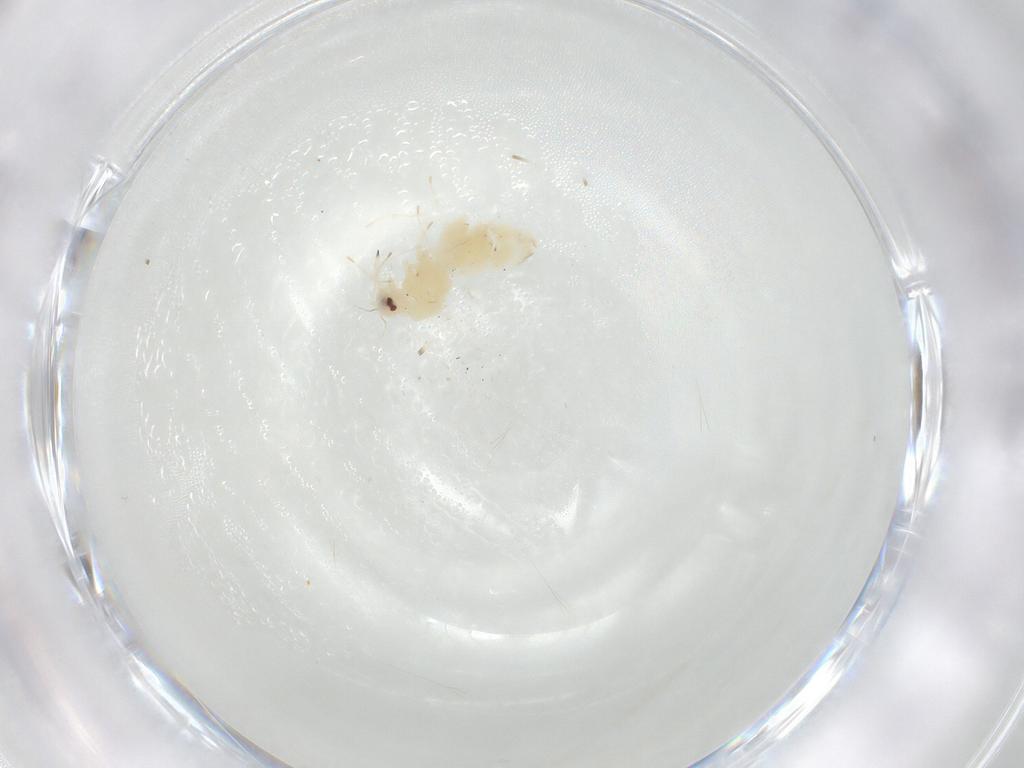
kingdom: Animalia
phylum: Arthropoda
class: Insecta
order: Hemiptera
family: Aleyrodidae
